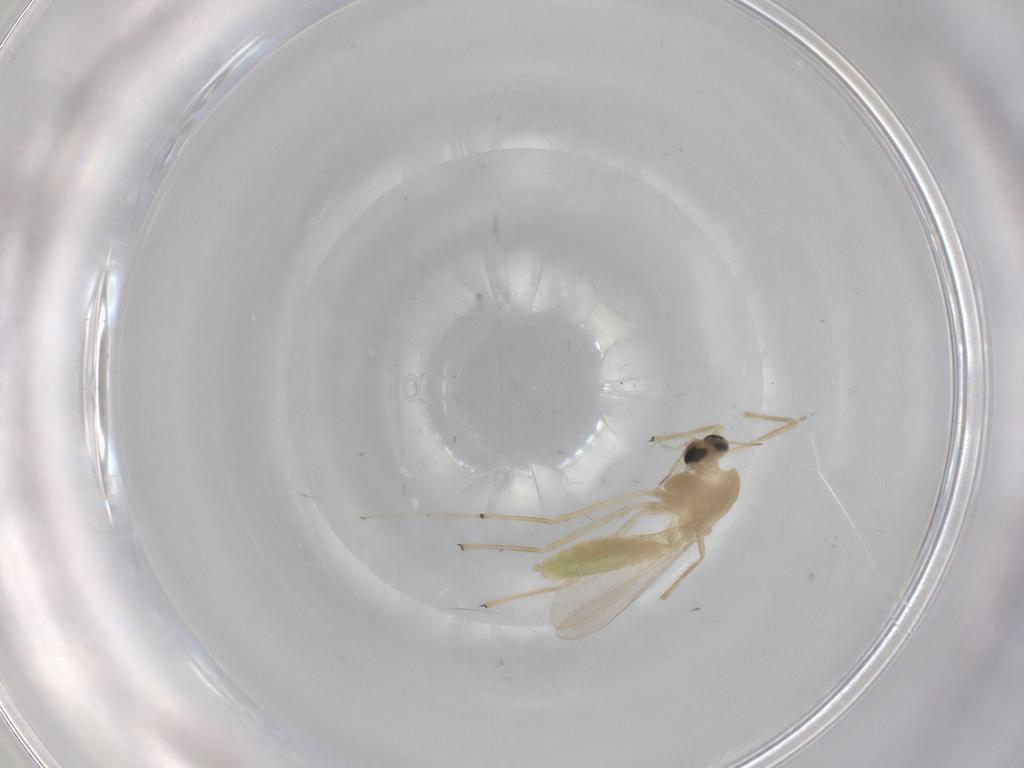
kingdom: Animalia
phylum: Arthropoda
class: Insecta
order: Diptera
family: Chironomidae
